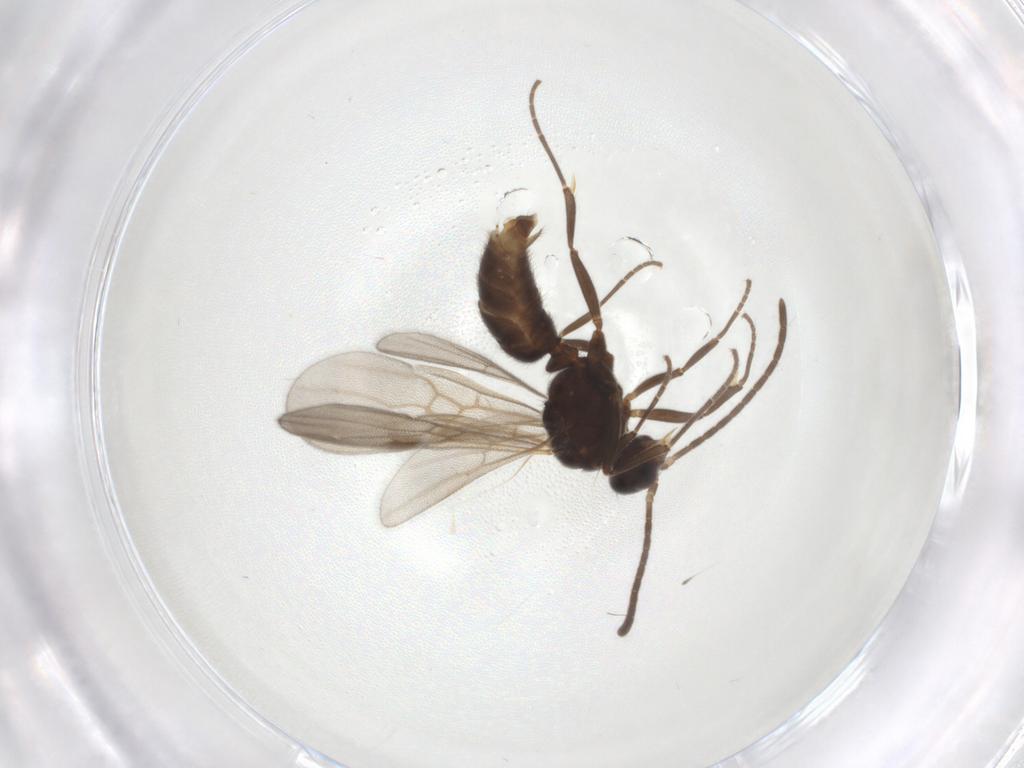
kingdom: Animalia
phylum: Arthropoda
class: Insecta
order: Hymenoptera
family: Formicidae
